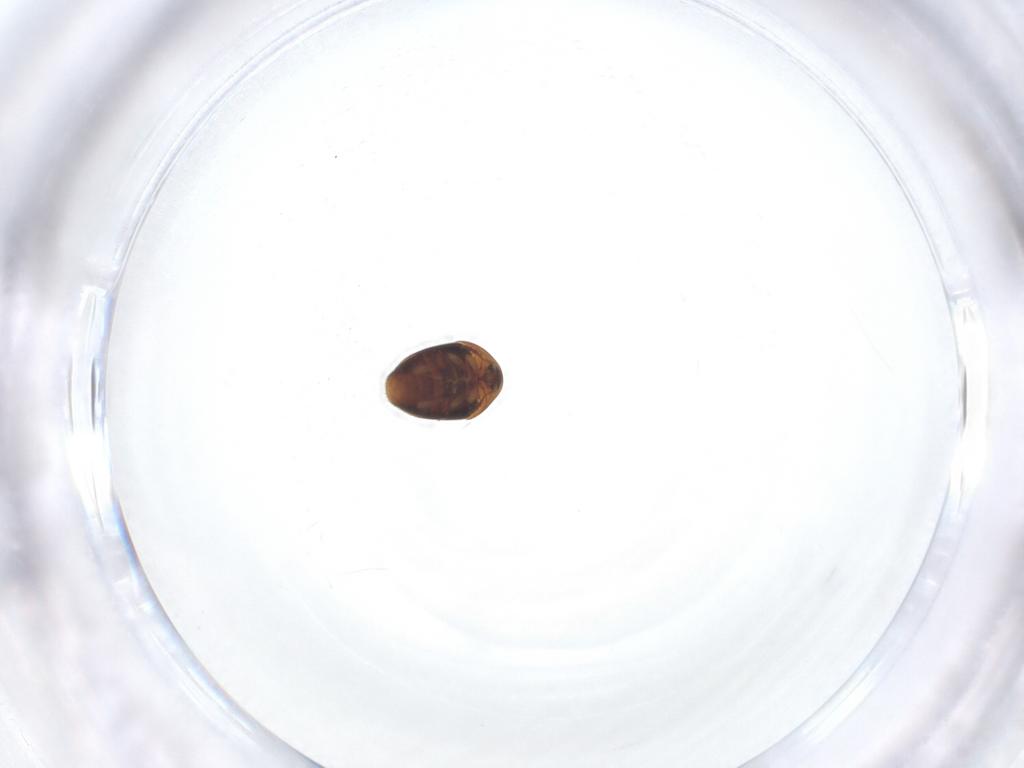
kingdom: Animalia
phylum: Arthropoda
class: Insecta
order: Coleoptera
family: Corylophidae
